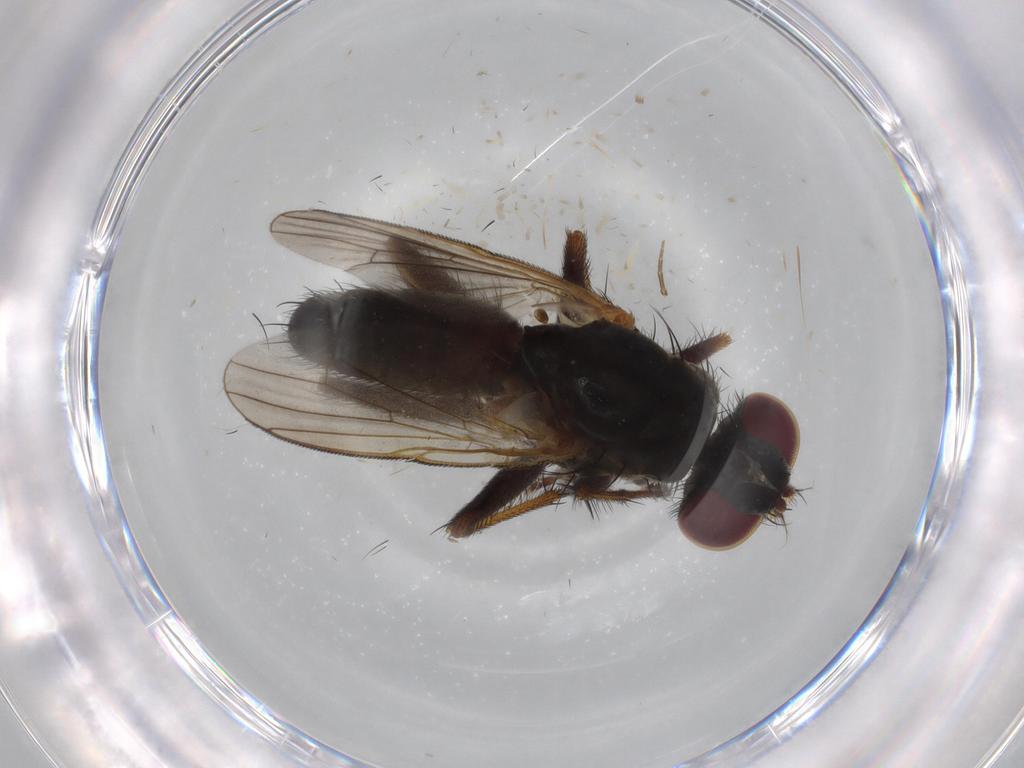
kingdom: Animalia
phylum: Arthropoda
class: Insecta
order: Diptera
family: Muscidae
